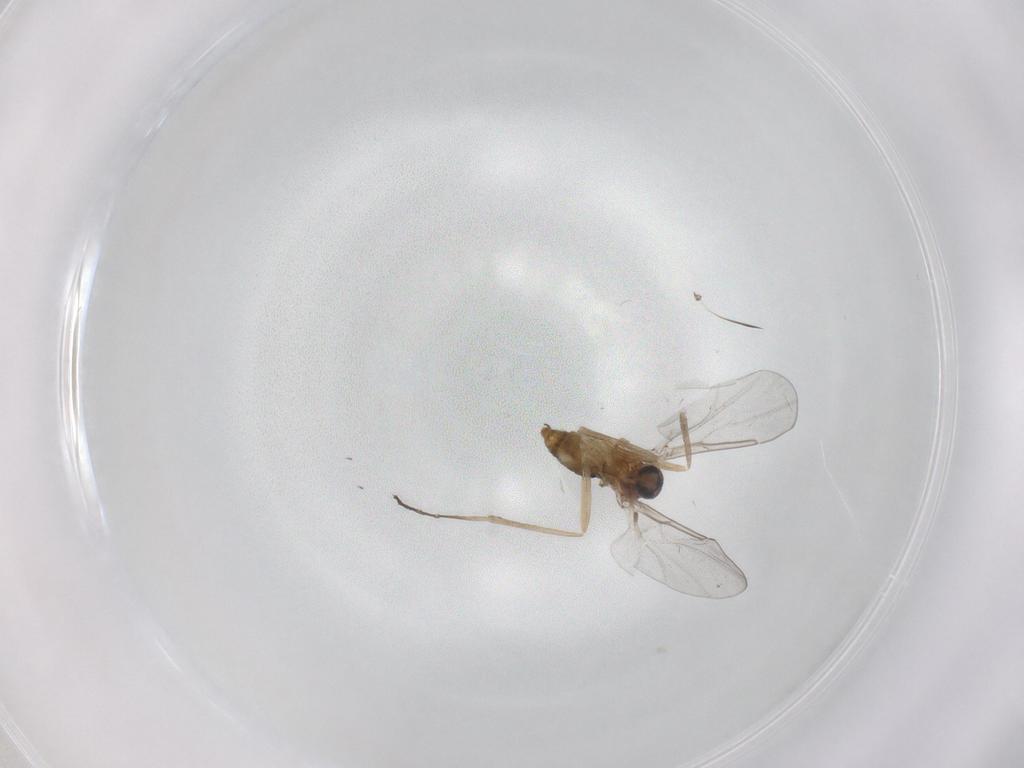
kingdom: Animalia
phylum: Arthropoda
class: Insecta
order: Diptera
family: Cecidomyiidae
